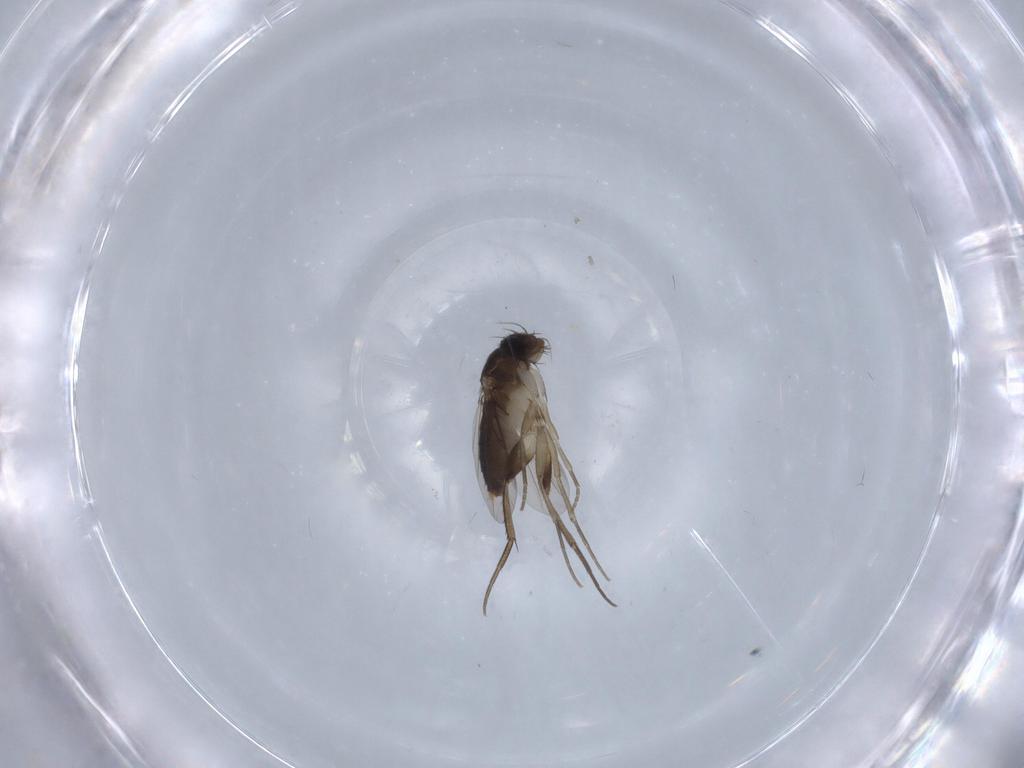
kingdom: Animalia
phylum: Arthropoda
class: Insecta
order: Diptera
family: Phoridae
